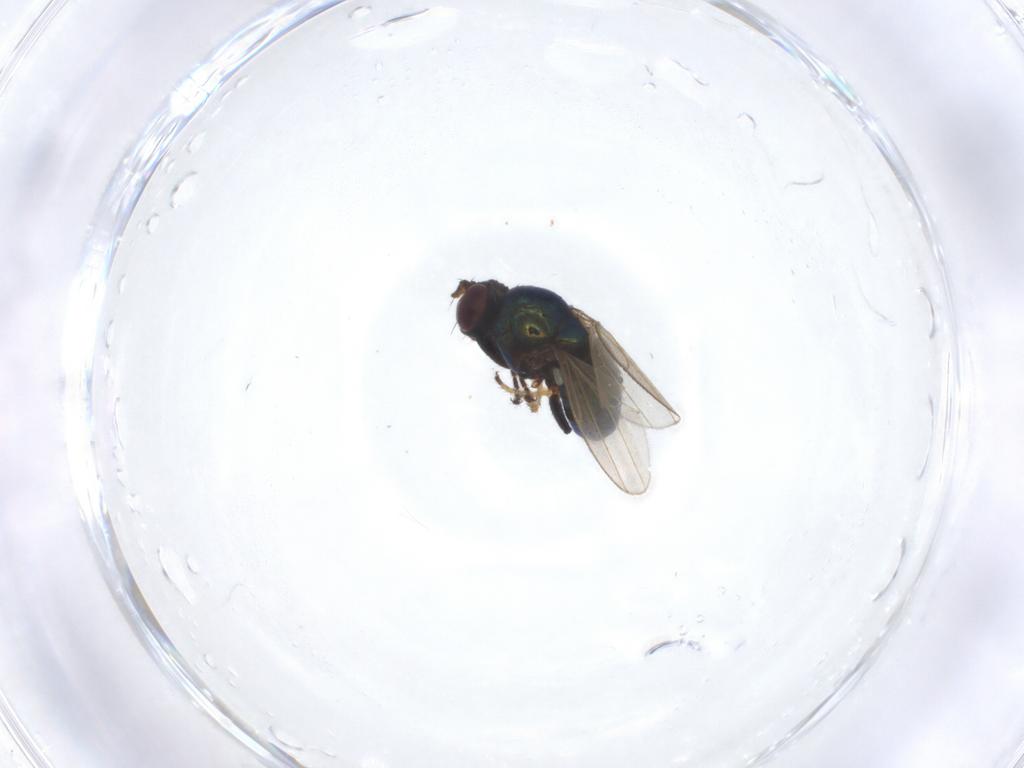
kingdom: Animalia
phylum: Arthropoda
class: Insecta
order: Diptera
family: Ephydridae
